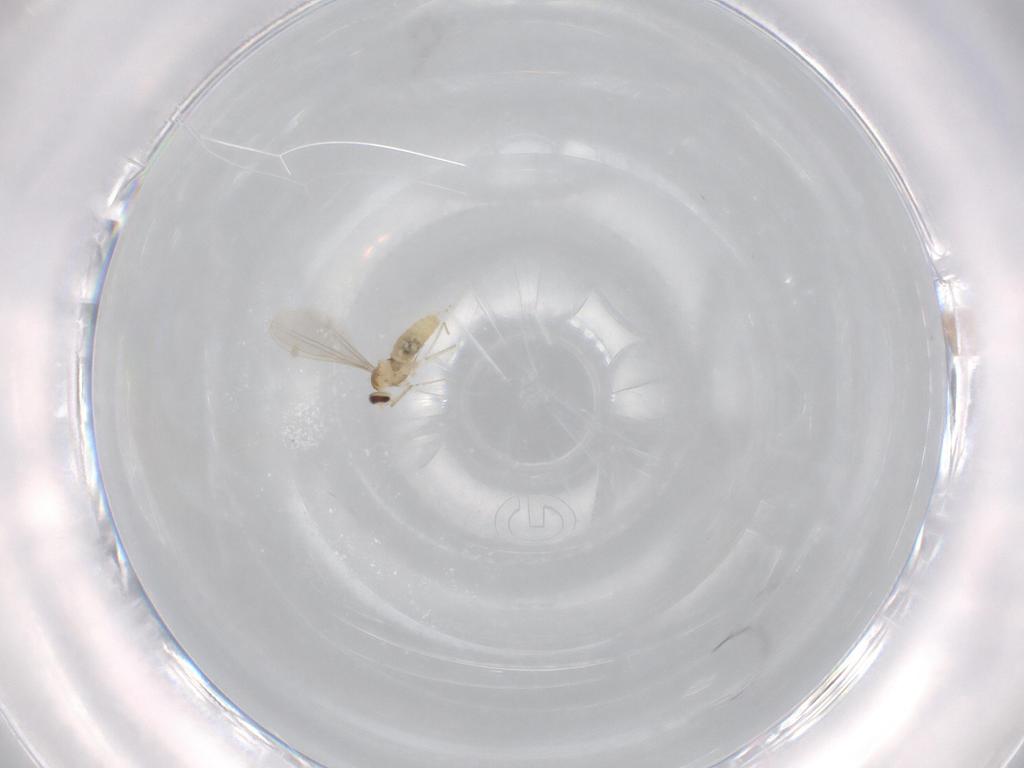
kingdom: Animalia
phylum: Arthropoda
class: Insecta
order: Diptera
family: Cecidomyiidae
